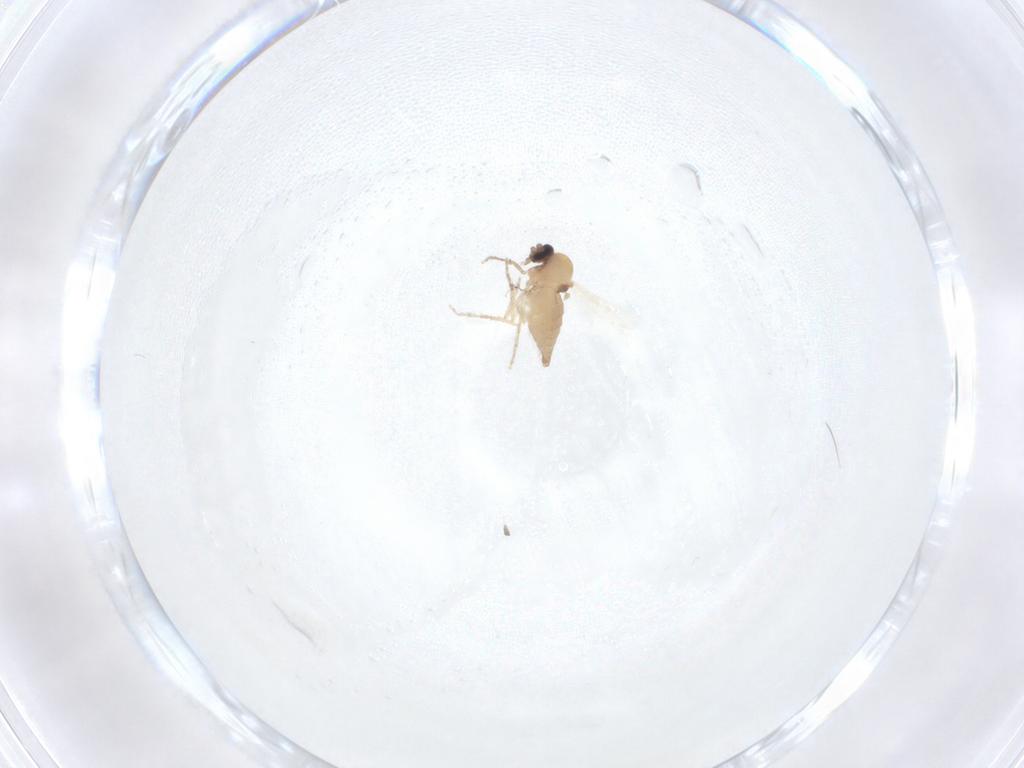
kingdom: Animalia
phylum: Arthropoda
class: Insecta
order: Diptera
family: Ceratopogonidae
